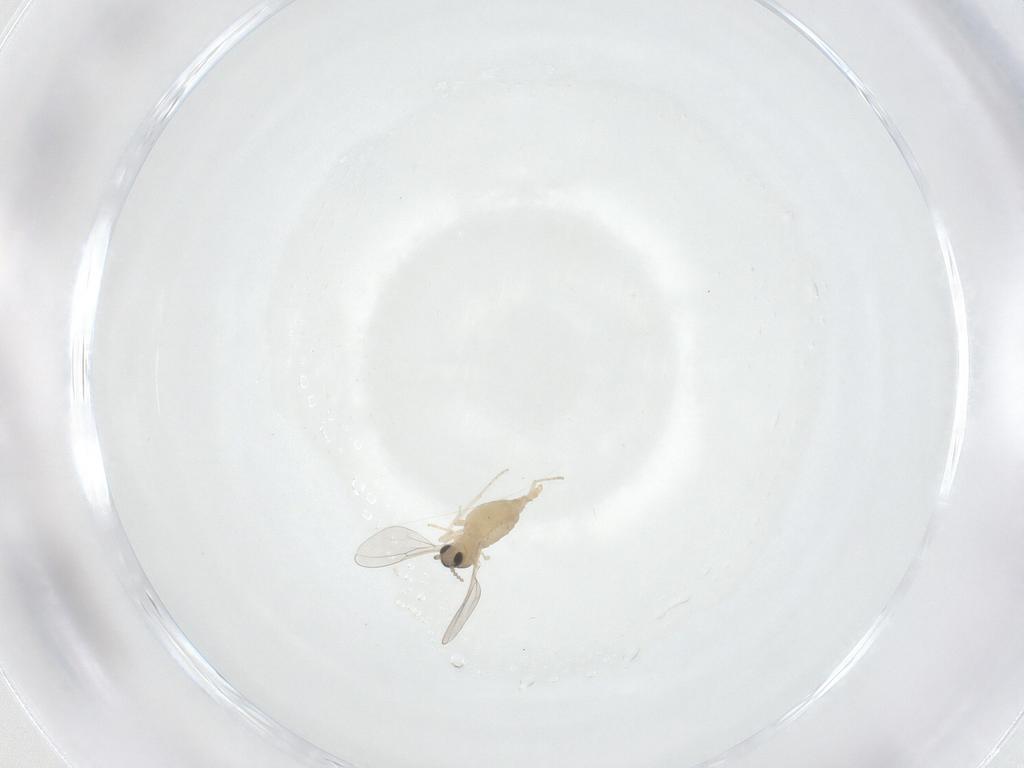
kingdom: Animalia
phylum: Arthropoda
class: Insecta
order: Diptera
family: Cecidomyiidae
